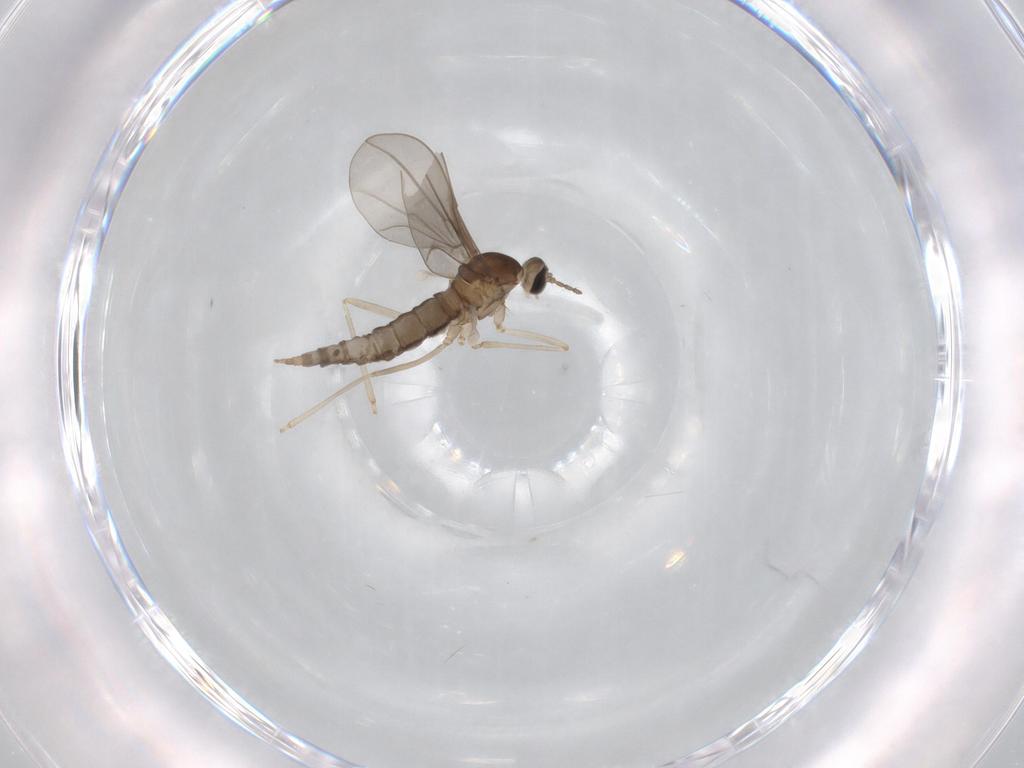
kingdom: Animalia
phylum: Arthropoda
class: Insecta
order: Diptera
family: Cecidomyiidae
